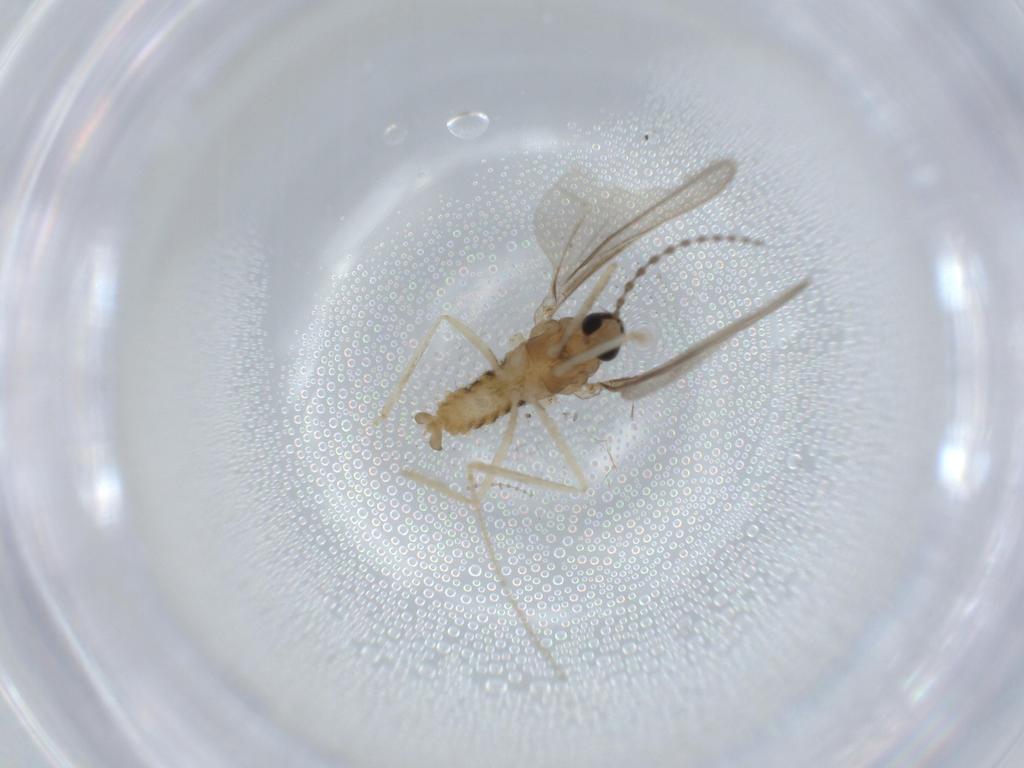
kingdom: Animalia
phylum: Arthropoda
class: Insecta
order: Diptera
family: Cecidomyiidae
